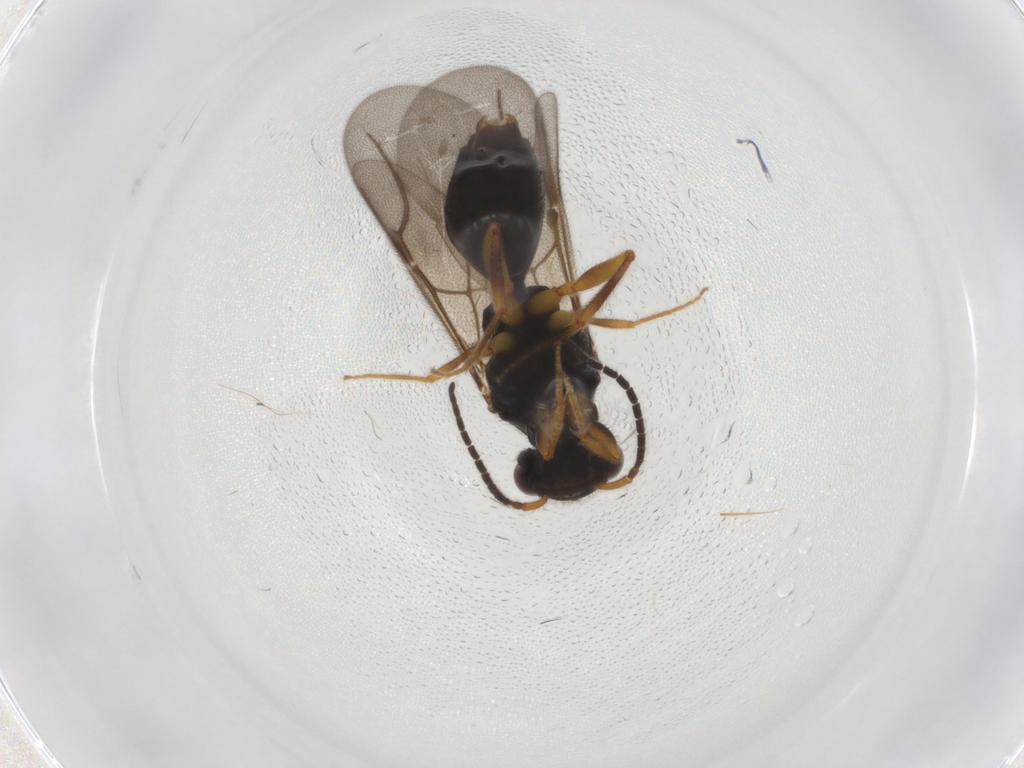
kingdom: Animalia
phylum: Arthropoda
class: Insecta
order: Hymenoptera
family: Bethylidae
